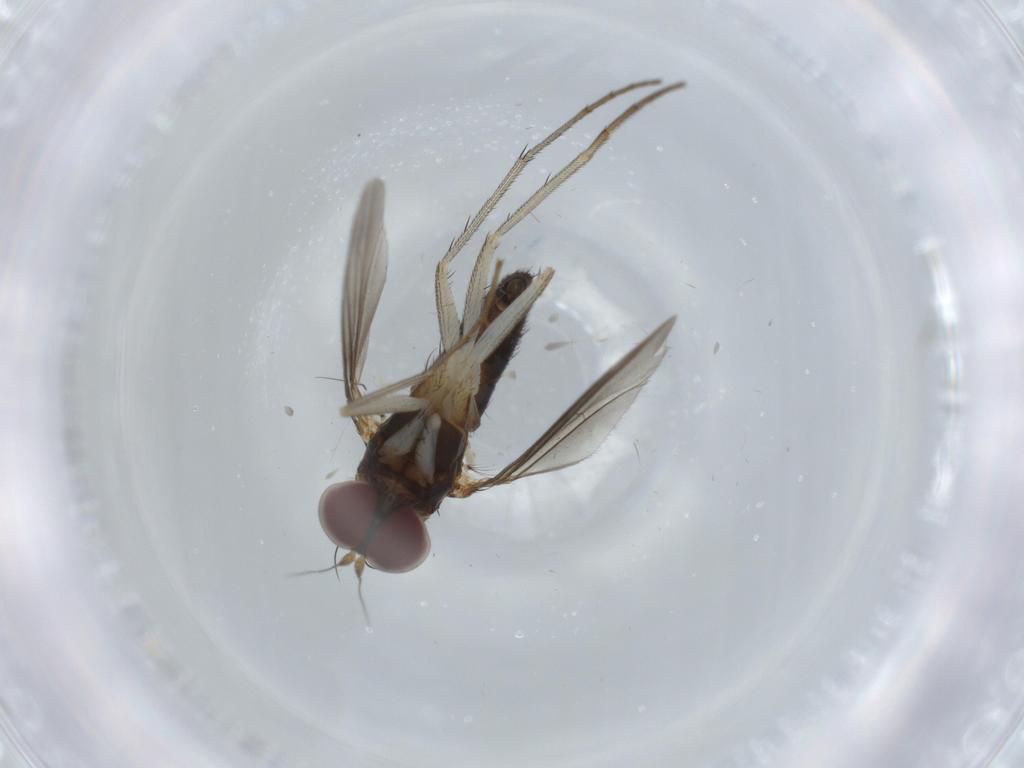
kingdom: Animalia
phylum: Arthropoda
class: Insecta
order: Diptera
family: Dolichopodidae
